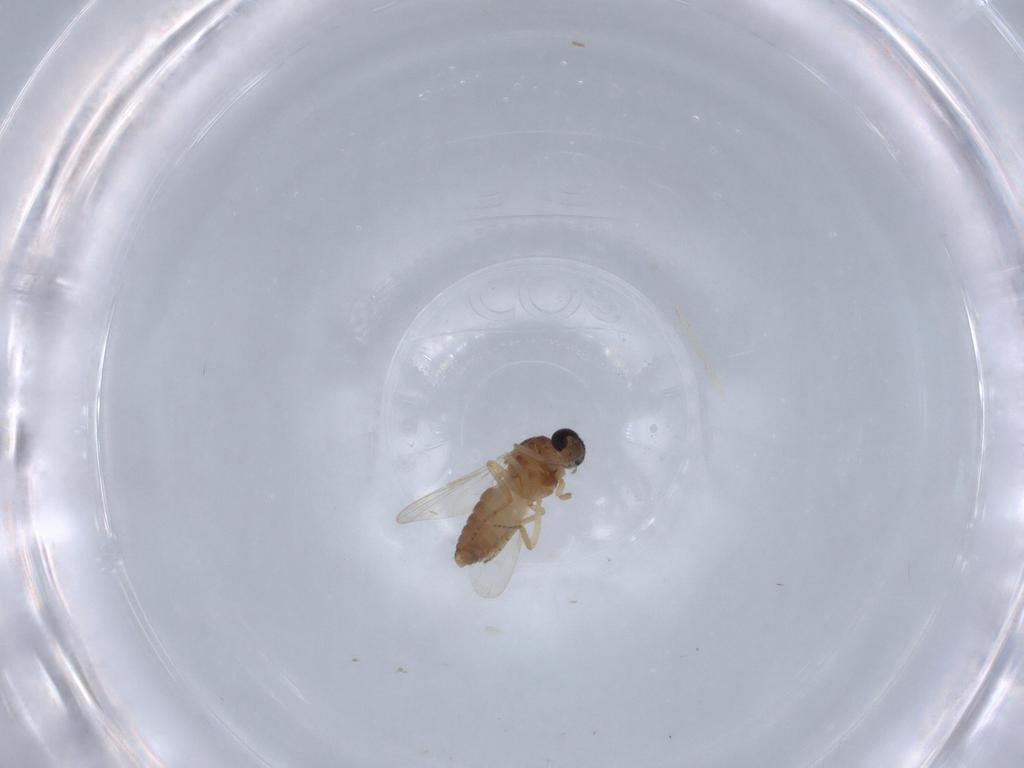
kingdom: Animalia
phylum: Arthropoda
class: Insecta
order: Diptera
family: Ceratopogonidae
